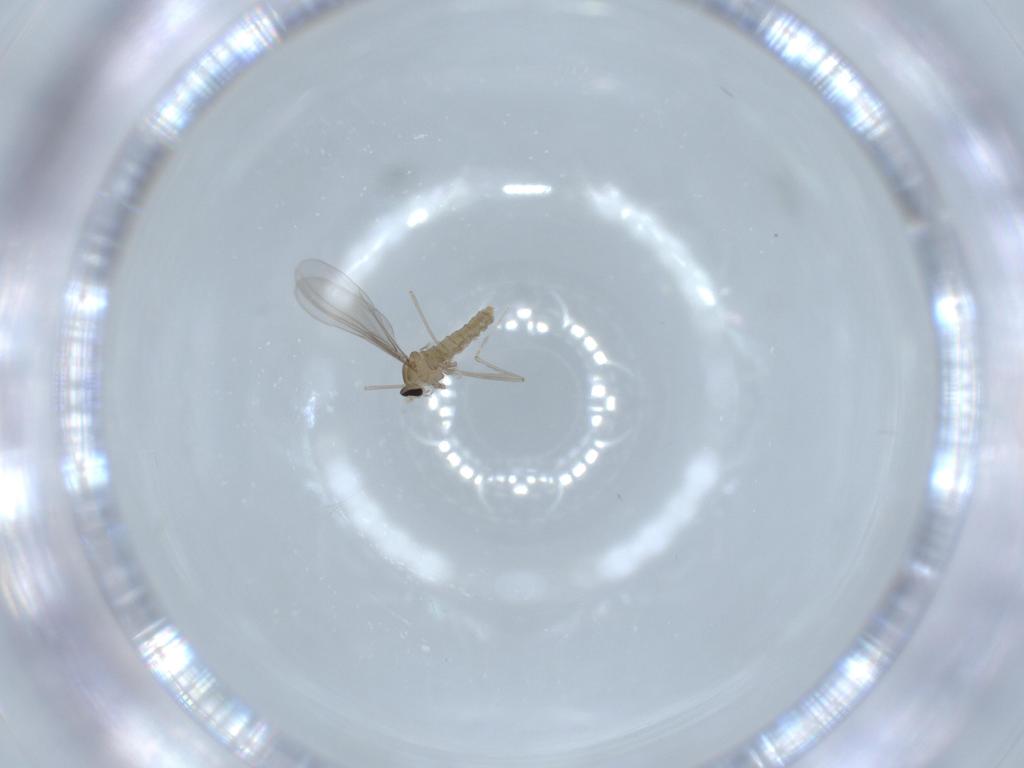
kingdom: Animalia
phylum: Arthropoda
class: Insecta
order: Diptera
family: Cecidomyiidae
